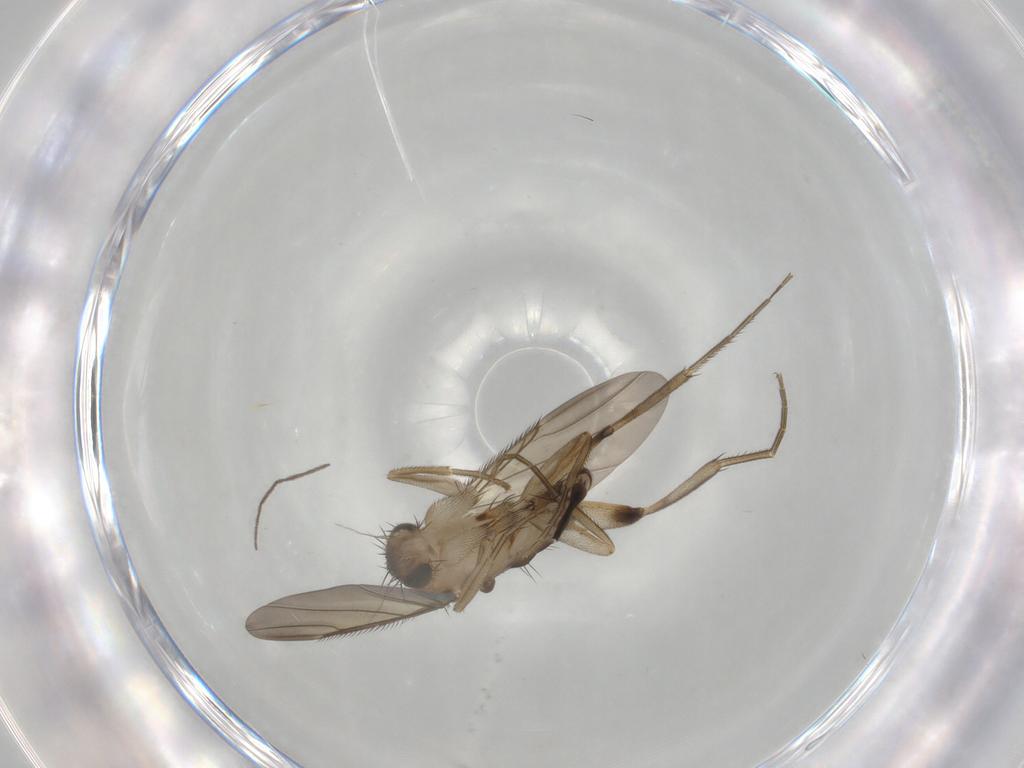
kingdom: Animalia
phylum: Arthropoda
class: Insecta
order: Diptera
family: Phoridae
